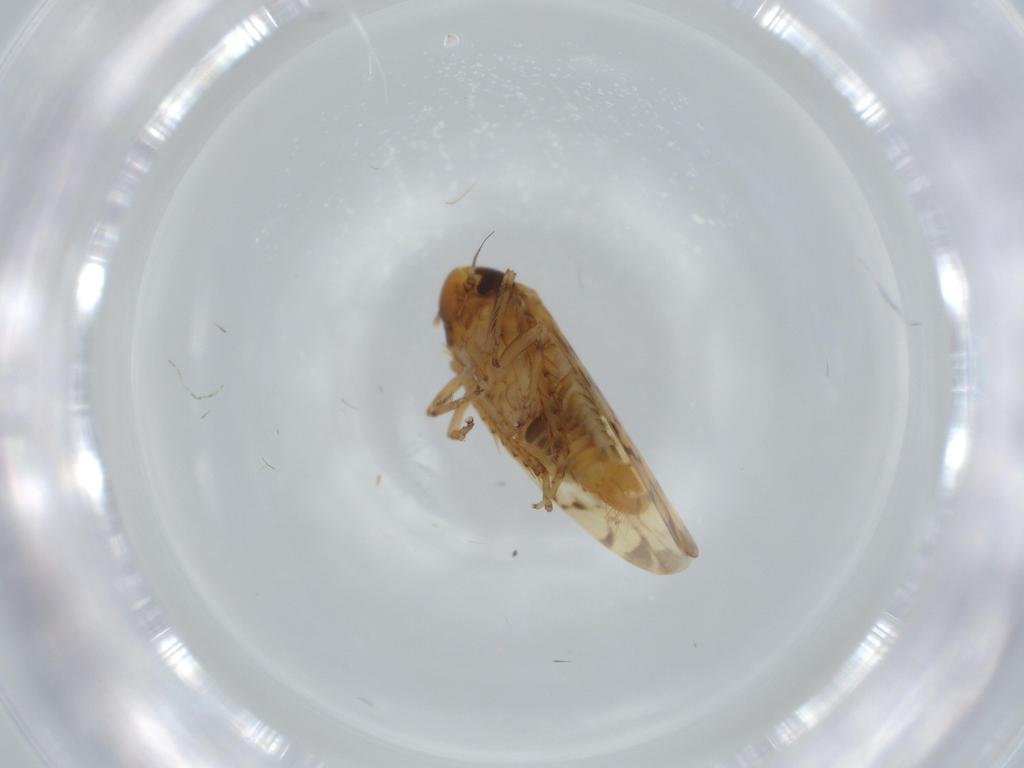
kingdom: Animalia
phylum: Arthropoda
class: Insecta
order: Hemiptera
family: Cicadellidae
